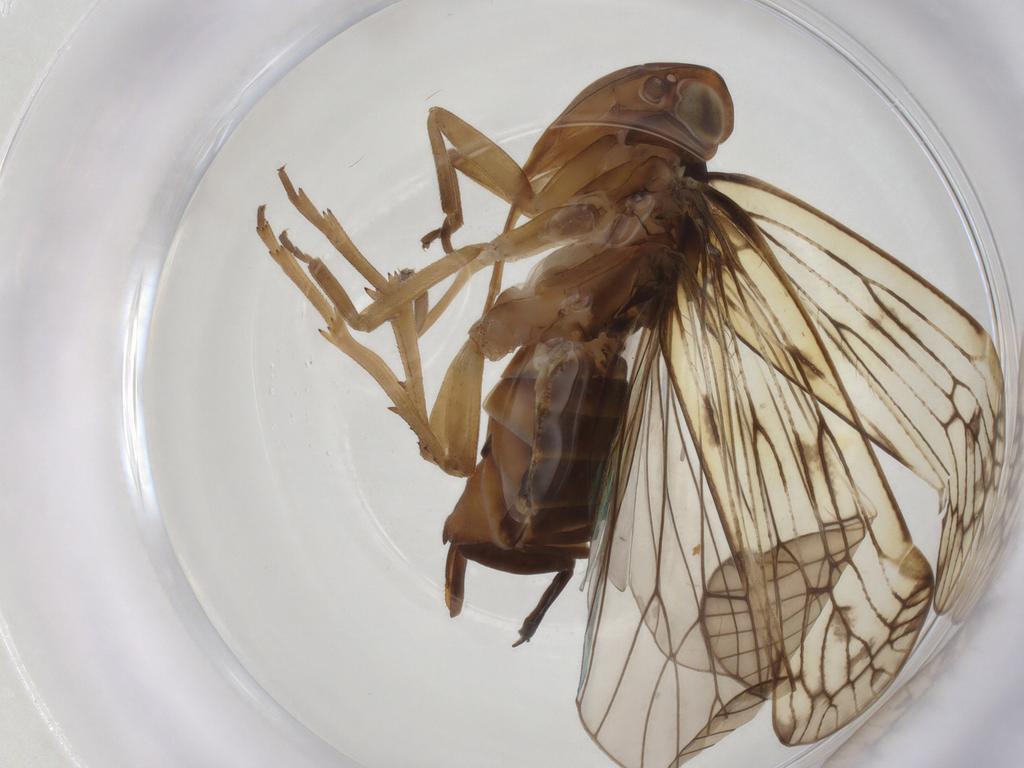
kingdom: Animalia
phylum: Arthropoda
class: Insecta
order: Hemiptera
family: Cixiidae
